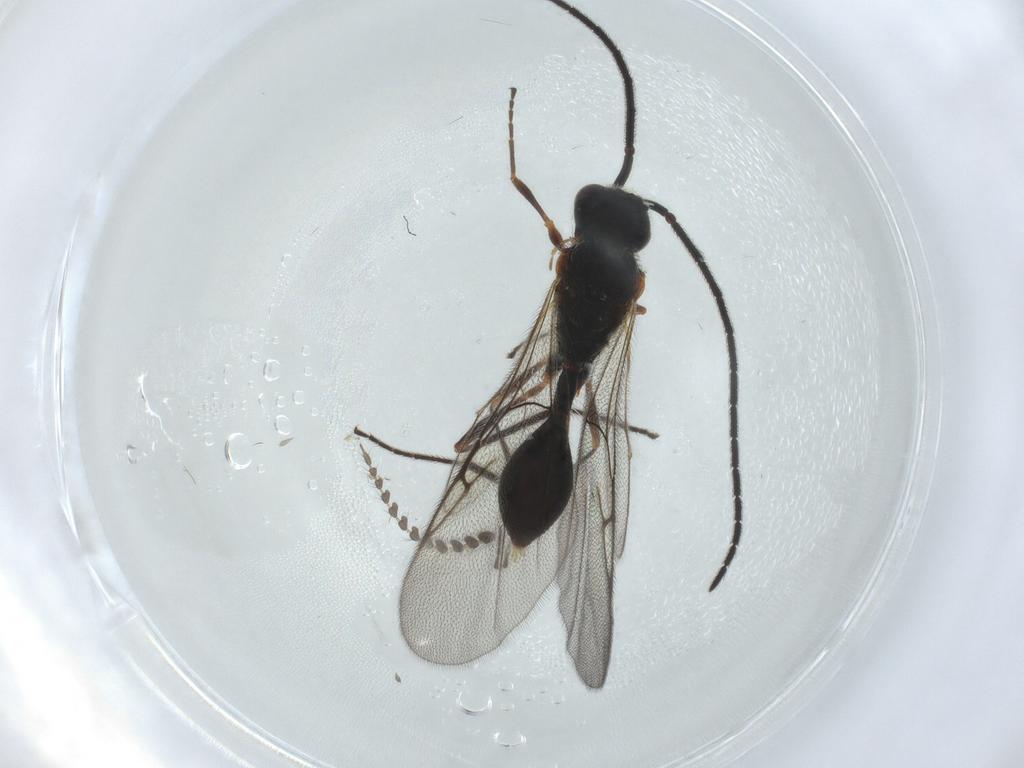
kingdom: Animalia
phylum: Arthropoda
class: Insecta
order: Hymenoptera
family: Diapriidae
